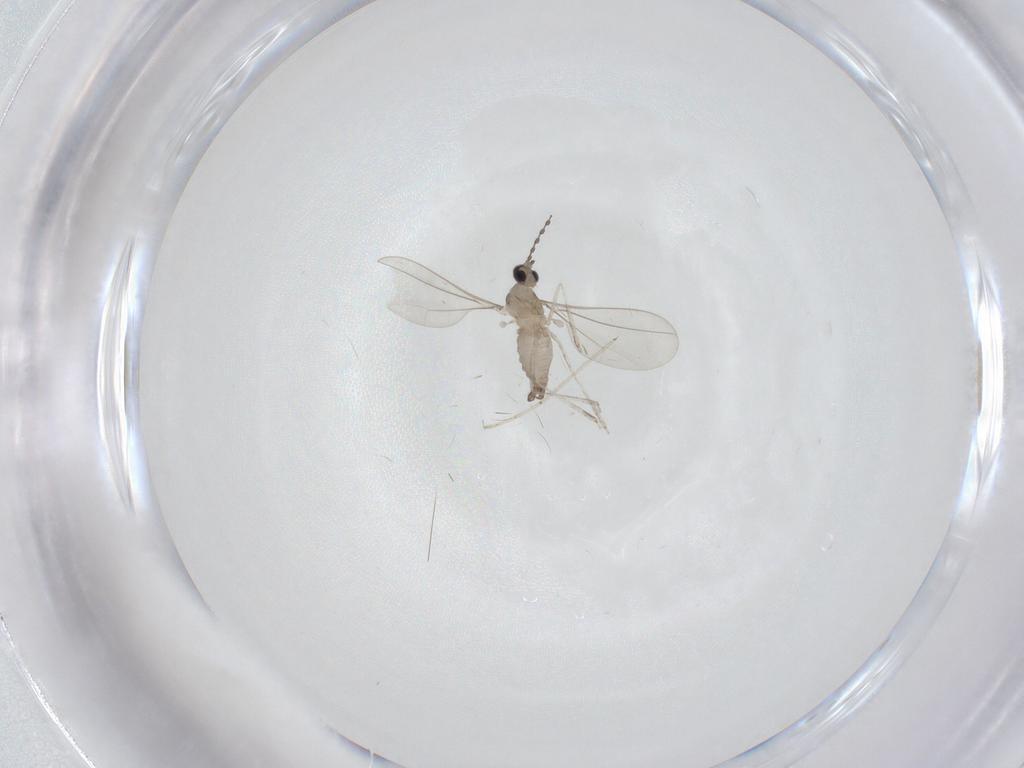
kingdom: Animalia
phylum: Arthropoda
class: Insecta
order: Diptera
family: Cecidomyiidae
